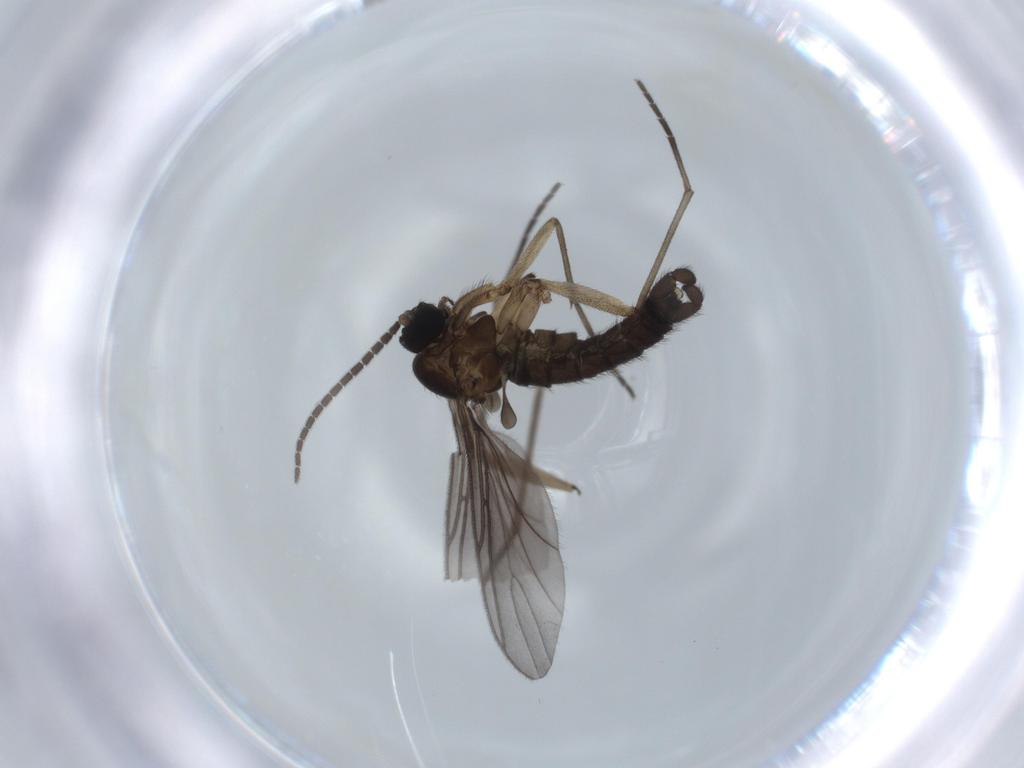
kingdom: Animalia
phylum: Arthropoda
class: Insecta
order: Diptera
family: Sciaridae
